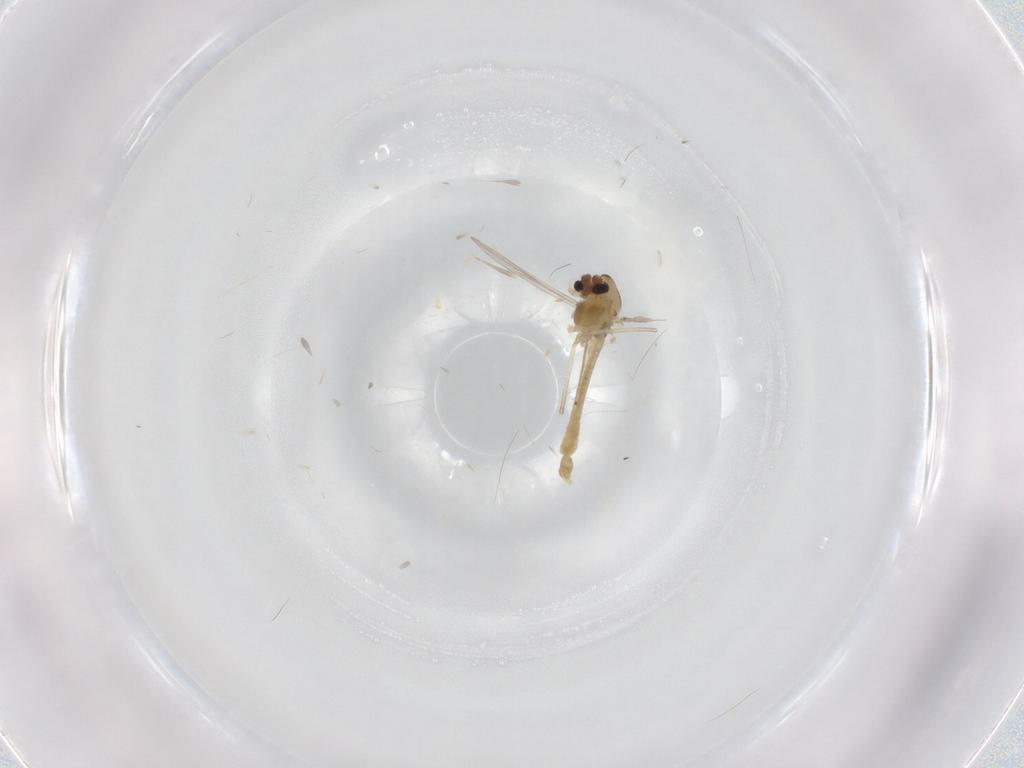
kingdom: Animalia
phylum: Arthropoda
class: Insecta
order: Diptera
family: Chironomidae
